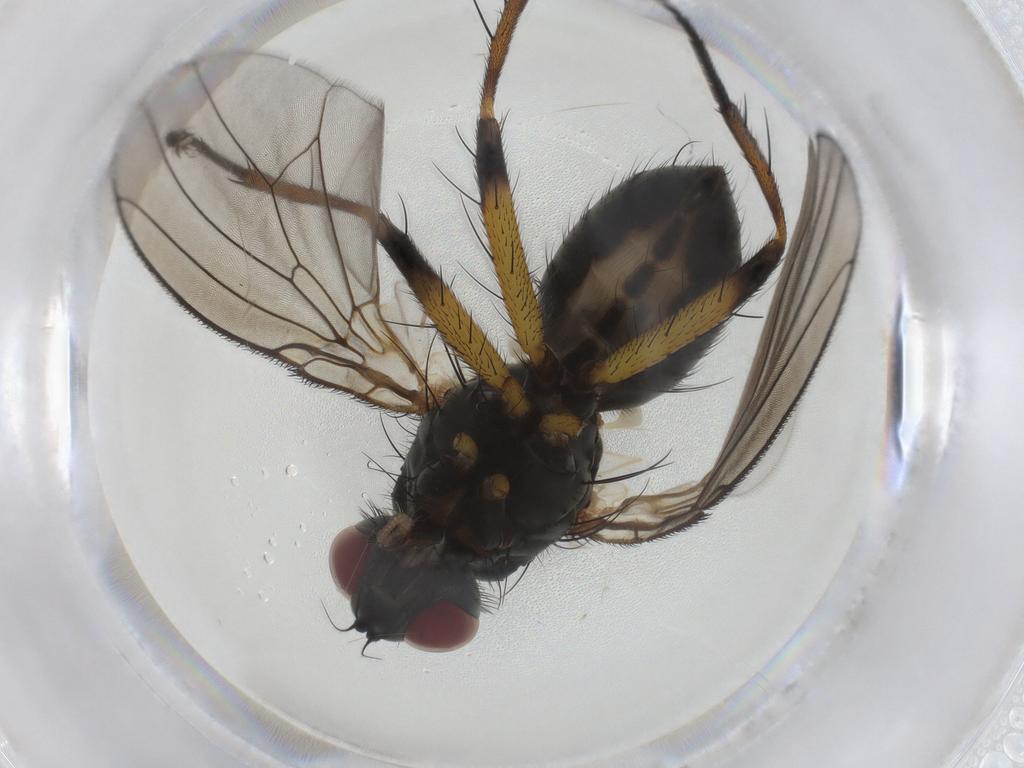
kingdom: Animalia
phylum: Arthropoda
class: Insecta
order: Diptera
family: Muscidae
